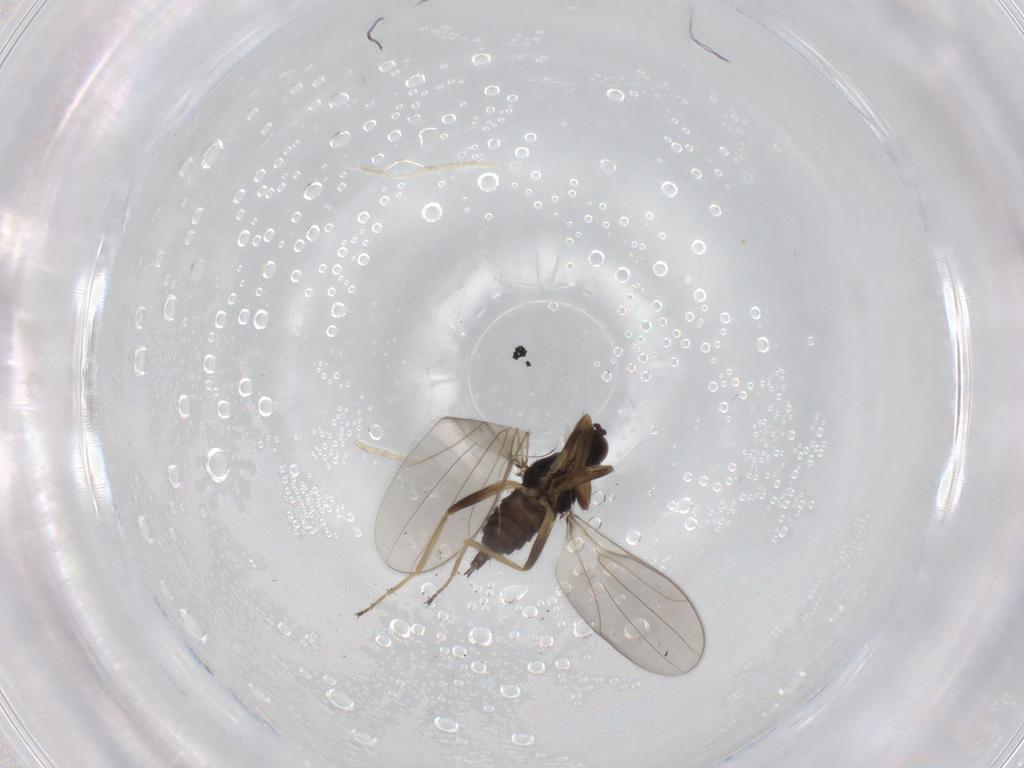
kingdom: Animalia
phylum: Arthropoda
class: Insecta
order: Diptera
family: Hybotidae
